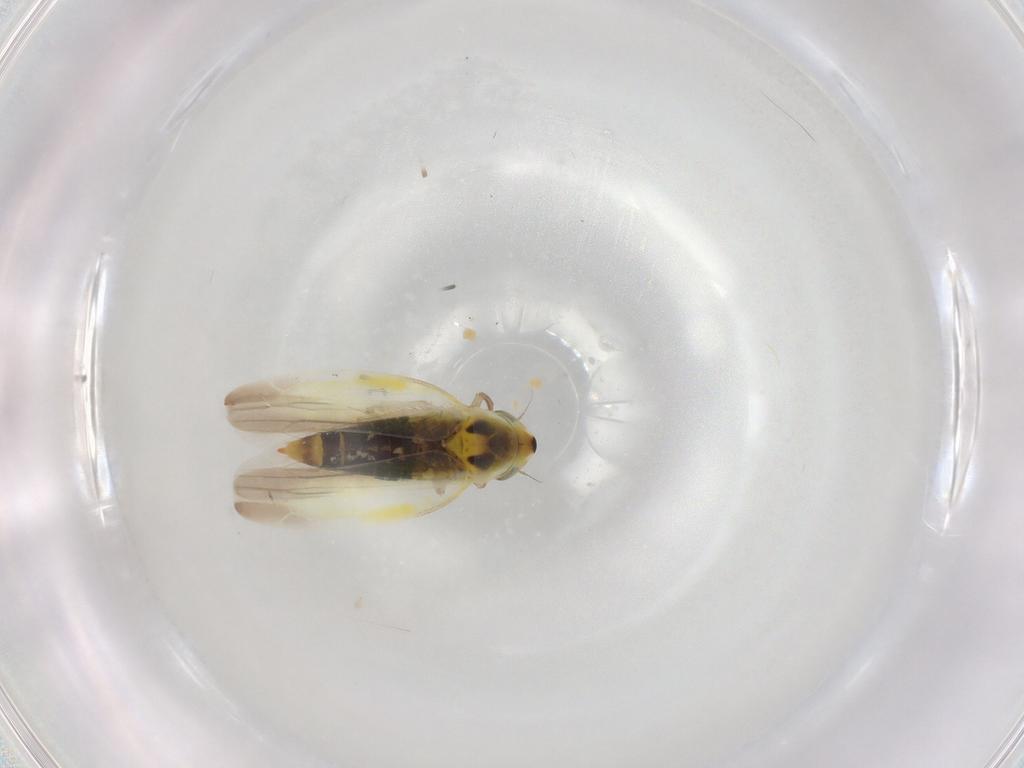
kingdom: Animalia
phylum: Arthropoda
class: Insecta
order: Hemiptera
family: Cicadellidae
